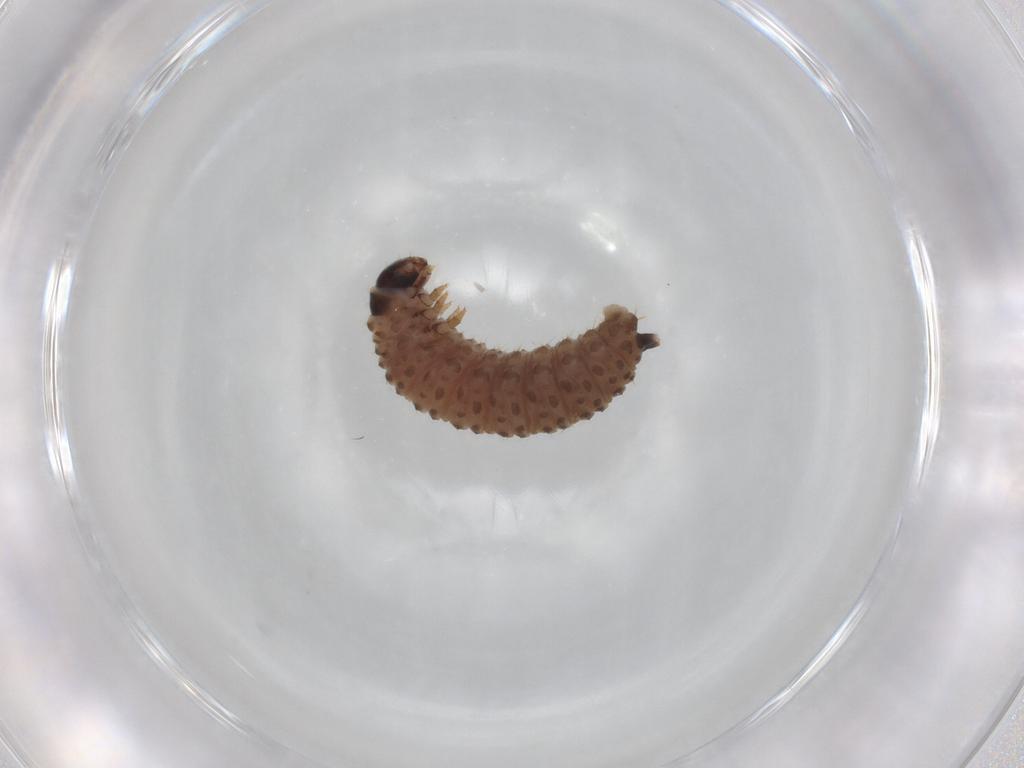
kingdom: Animalia
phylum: Arthropoda
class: Insecta
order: Coleoptera
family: Chrysomelidae
